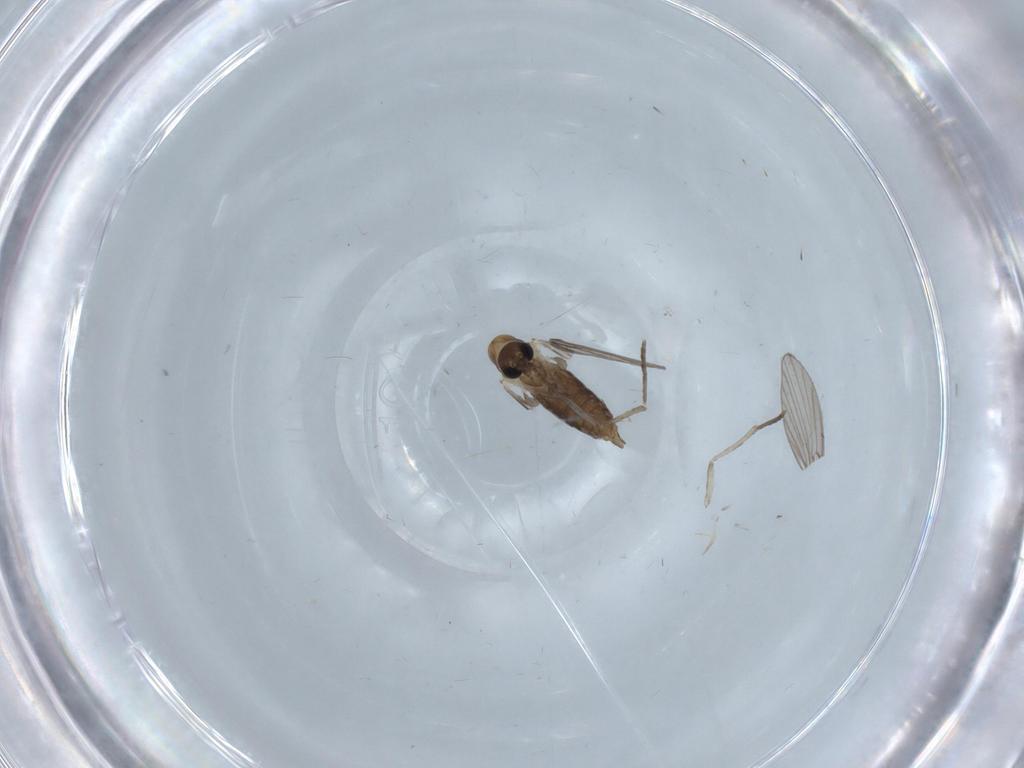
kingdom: Animalia
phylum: Arthropoda
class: Insecta
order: Diptera
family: Psychodidae
